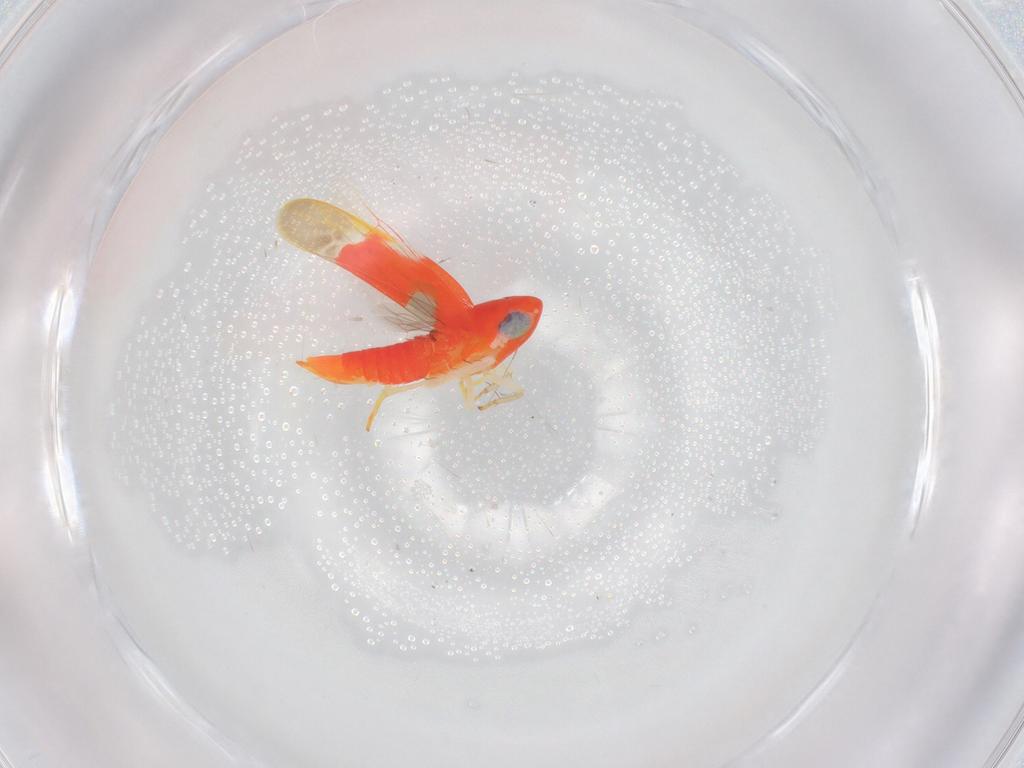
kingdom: Animalia
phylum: Arthropoda
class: Insecta
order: Hemiptera
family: Cicadellidae
